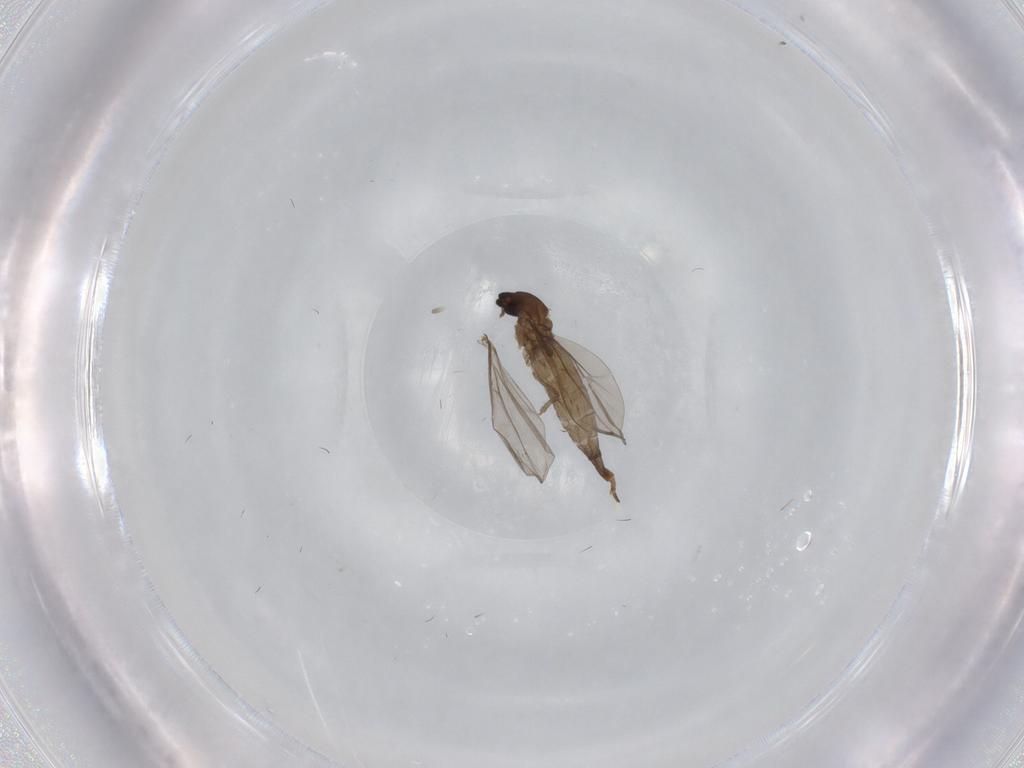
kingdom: Animalia
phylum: Arthropoda
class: Insecta
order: Diptera
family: Cecidomyiidae
